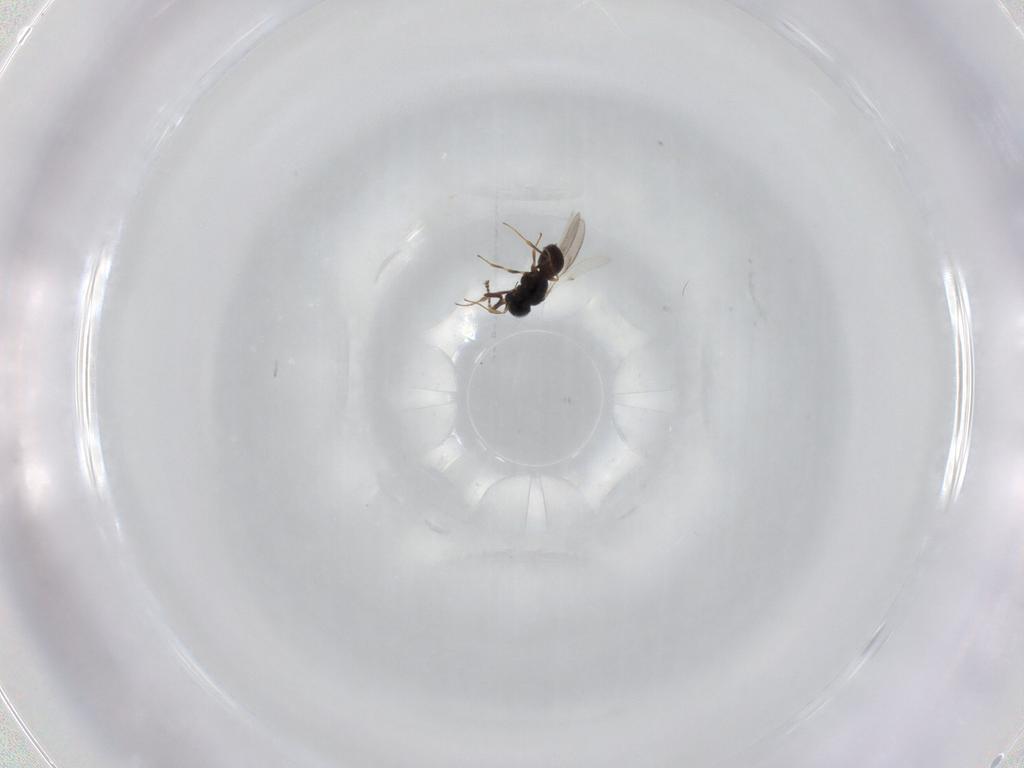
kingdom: Animalia
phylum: Arthropoda
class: Insecta
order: Hymenoptera
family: Scelionidae
